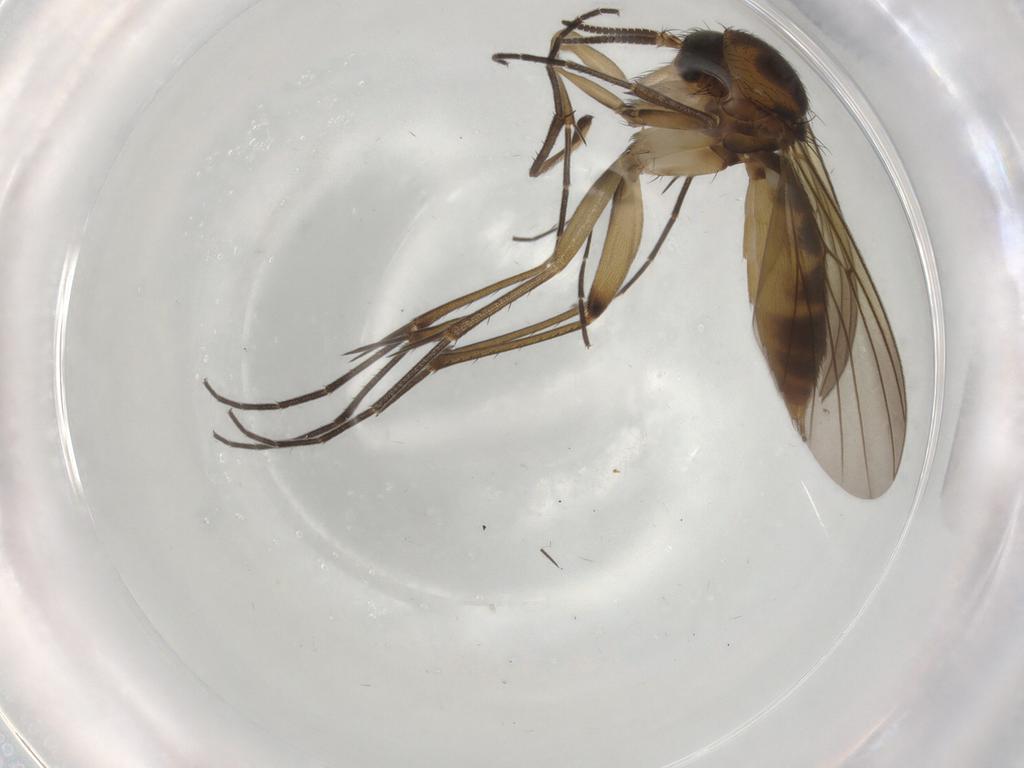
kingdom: Animalia
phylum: Arthropoda
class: Insecta
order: Diptera
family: Mycetophilidae
